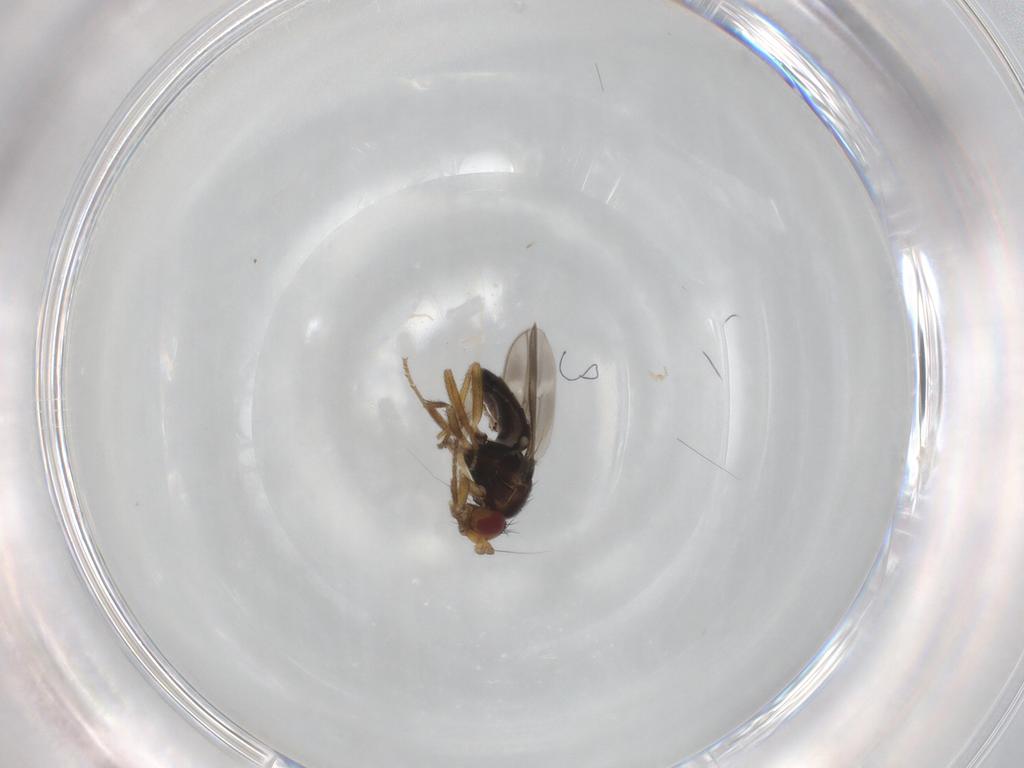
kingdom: Animalia
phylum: Arthropoda
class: Insecta
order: Diptera
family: Sphaeroceridae
